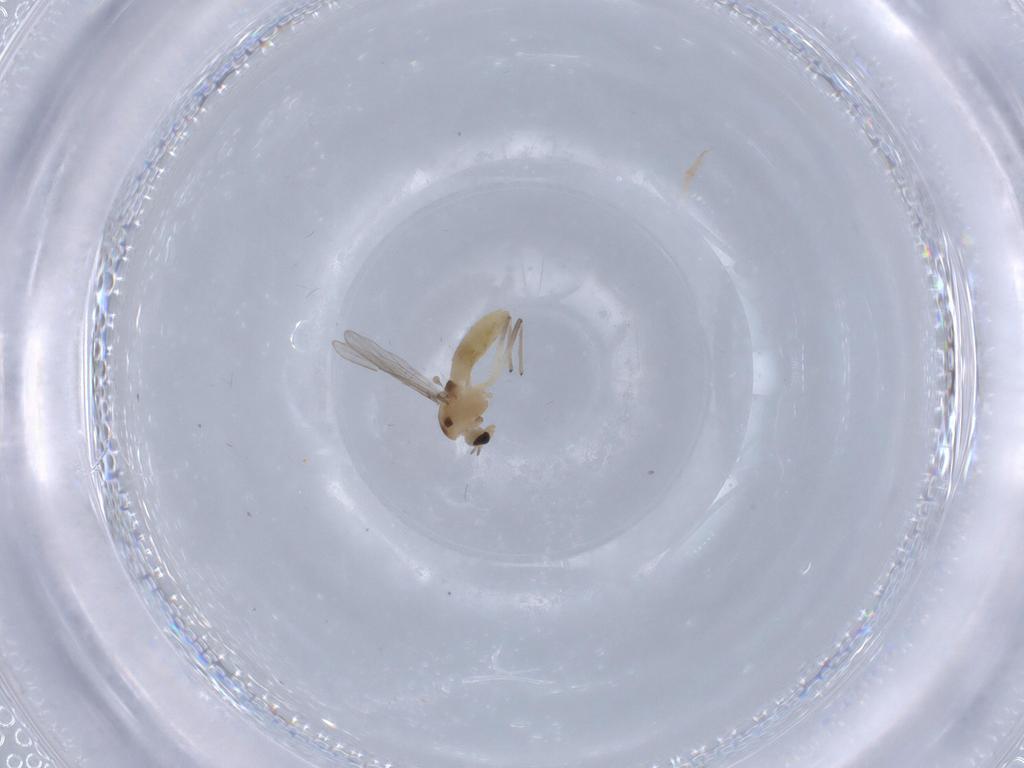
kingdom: Animalia
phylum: Arthropoda
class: Insecta
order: Diptera
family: Chironomidae
